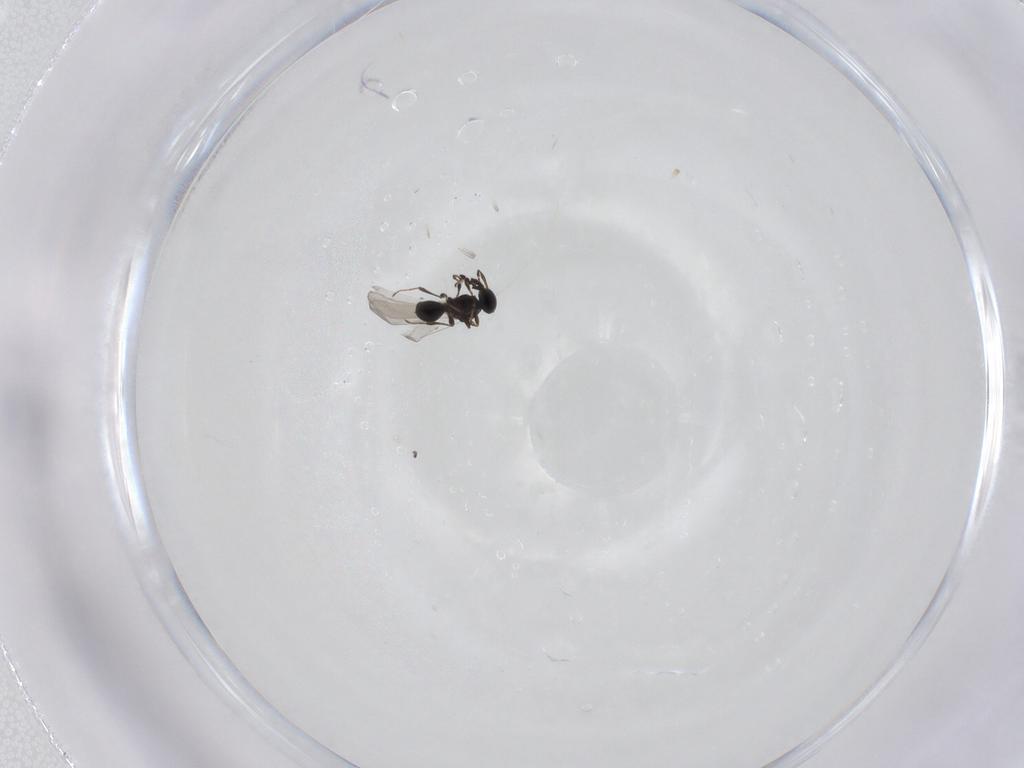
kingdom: Animalia
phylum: Arthropoda
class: Insecta
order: Hymenoptera
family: Platygastridae
